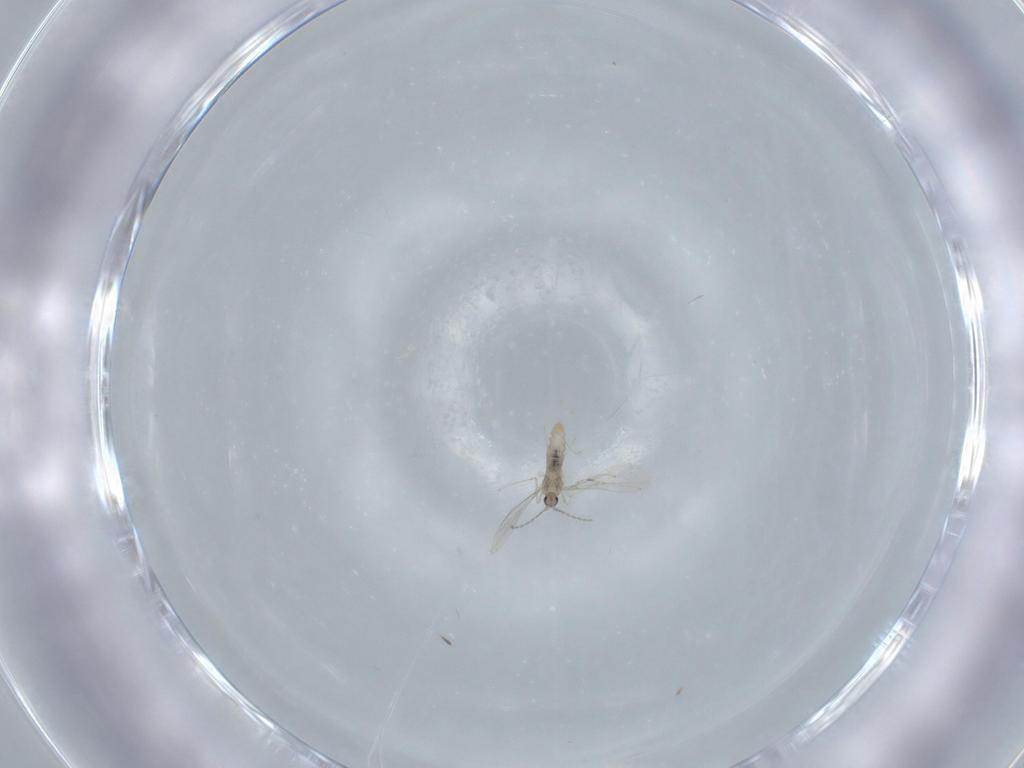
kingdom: Animalia
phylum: Arthropoda
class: Insecta
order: Diptera
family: Cecidomyiidae
